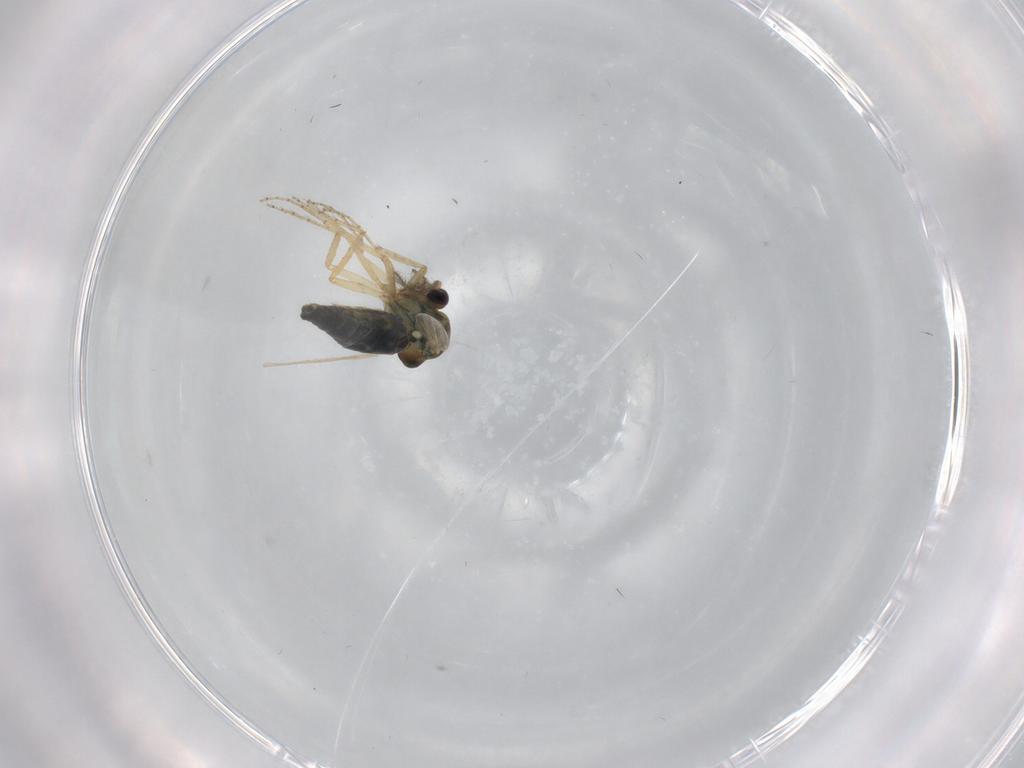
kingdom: Animalia
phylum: Arthropoda
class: Insecta
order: Diptera
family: Ceratopogonidae
